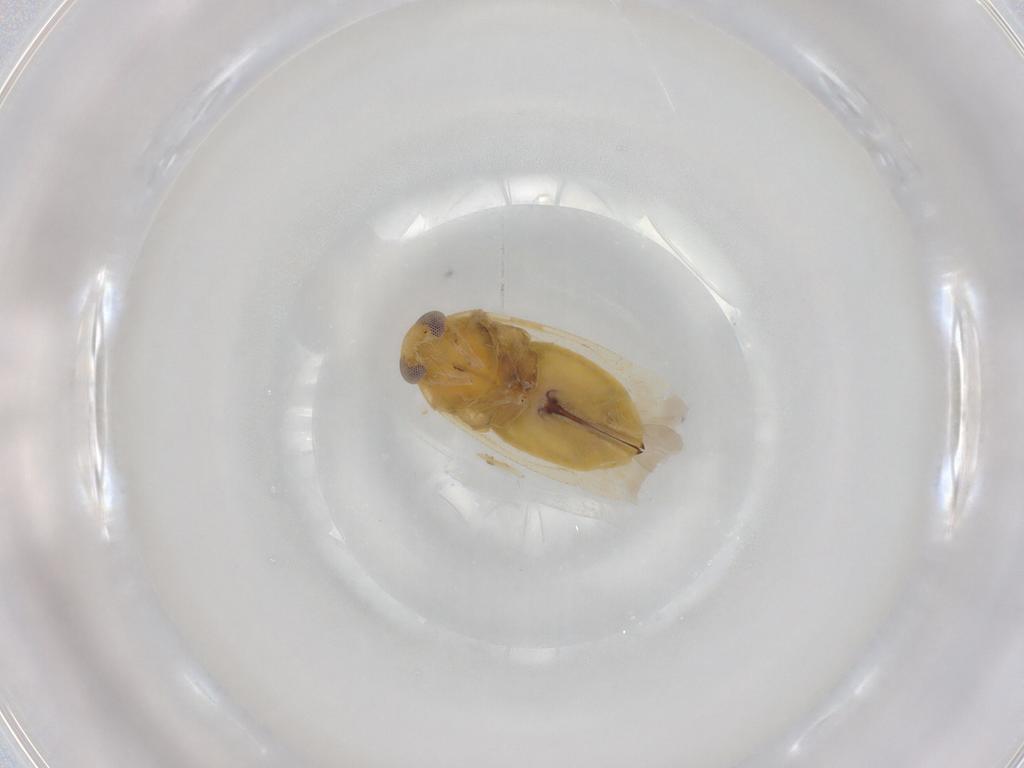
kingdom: Animalia
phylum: Arthropoda
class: Insecta
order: Hemiptera
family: Miridae
